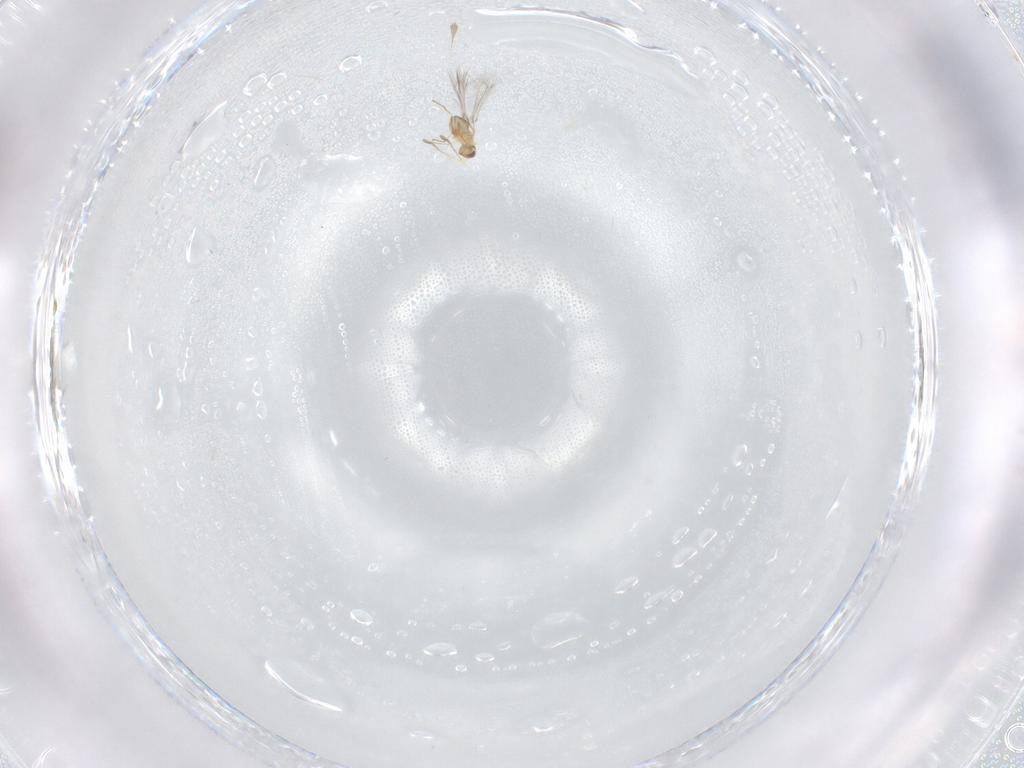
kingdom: Animalia
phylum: Arthropoda
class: Insecta
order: Hymenoptera
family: Mymaridae
